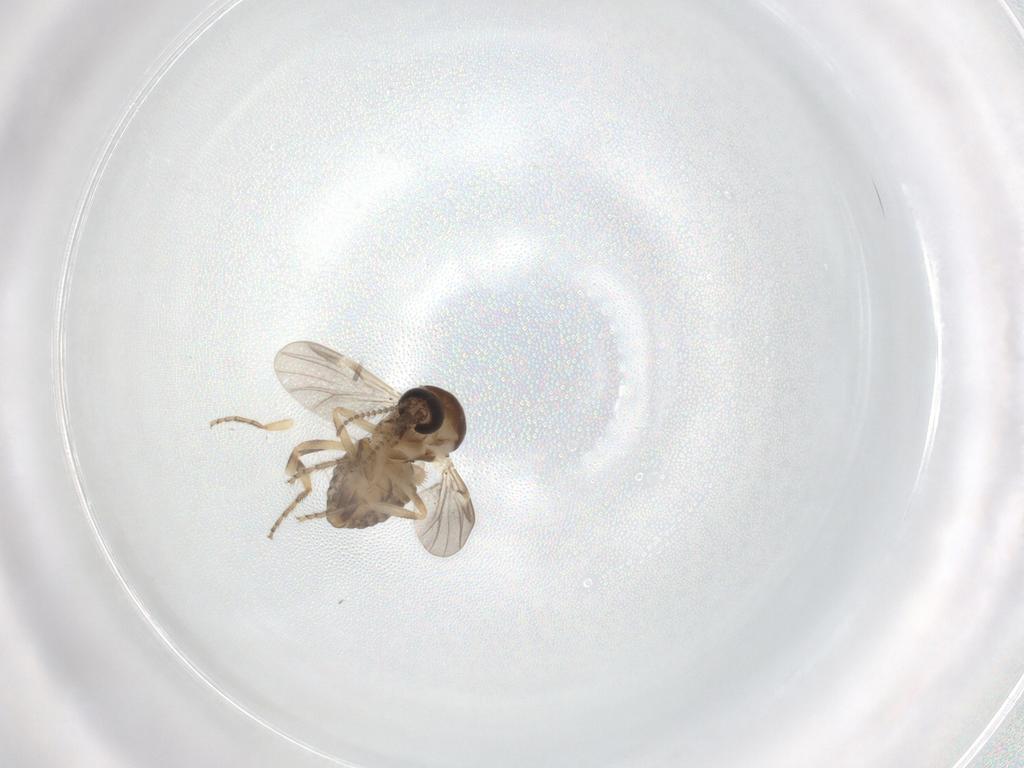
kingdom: Animalia
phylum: Arthropoda
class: Insecta
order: Diptera
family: Ceratopogonidae
